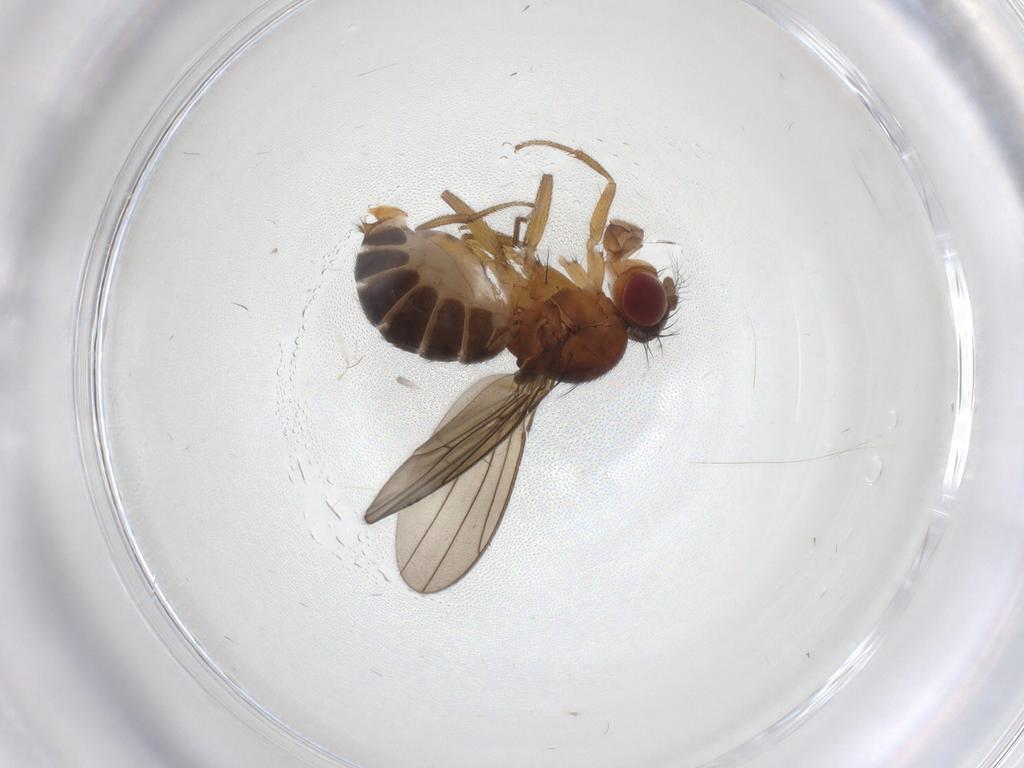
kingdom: Animalia
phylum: Arthropoda
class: Insecta
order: Diptera
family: Drosophilidae
